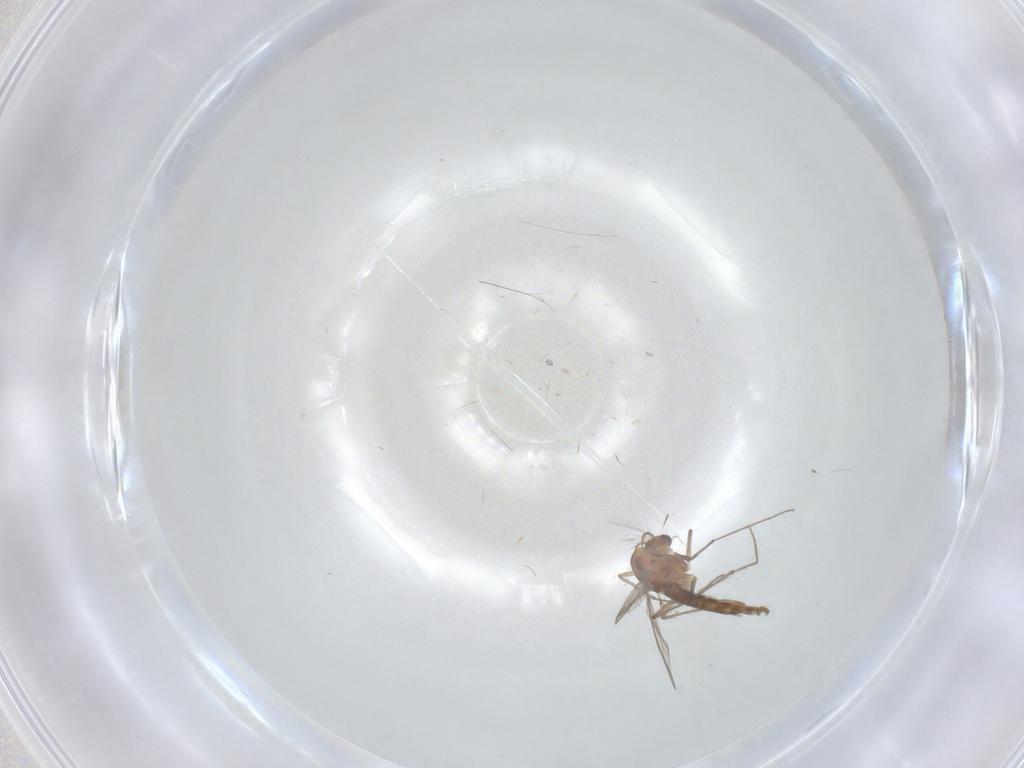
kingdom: Animalia
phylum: Arthropoda
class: Insecta
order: Diptera
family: Chironomidae
